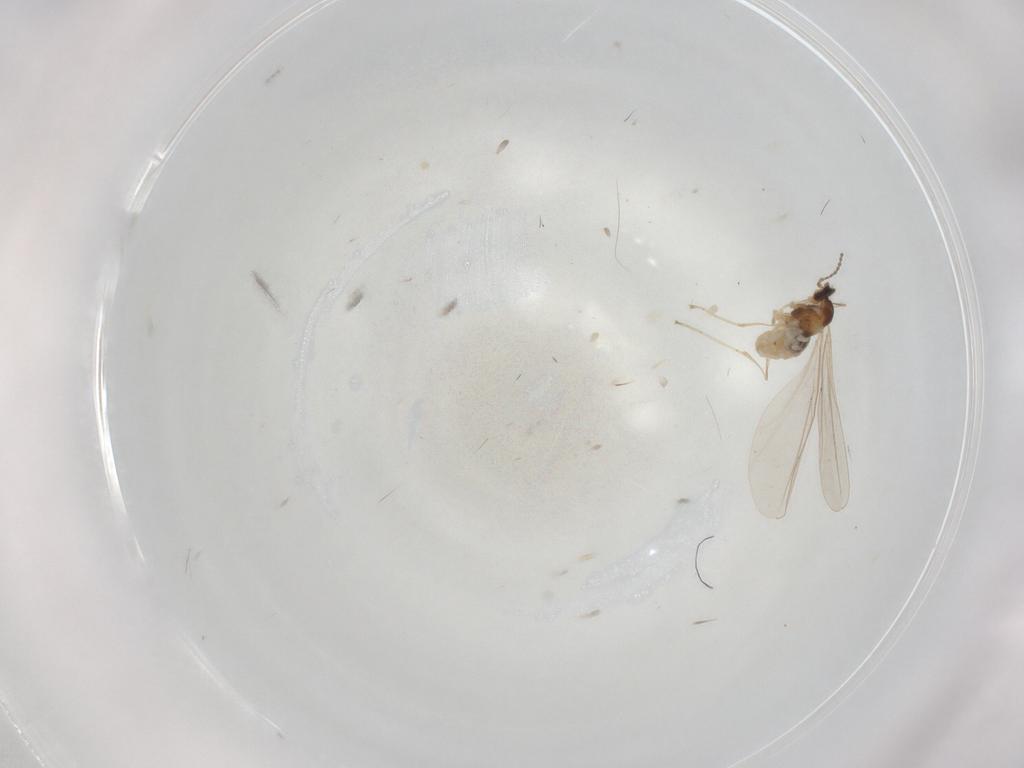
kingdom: Animalia
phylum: Arthropoda
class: Insecta
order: Diptera
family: Cecidomyiidae
